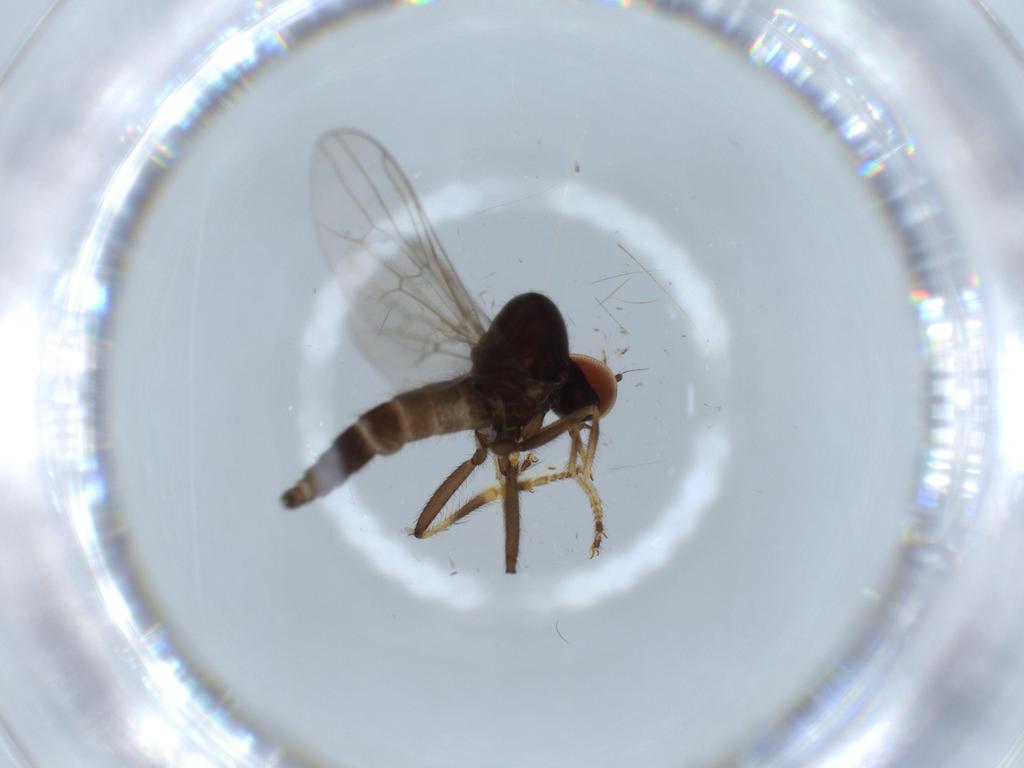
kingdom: Animalia
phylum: Arthropoda
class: Insecta
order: Diptera
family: Hybotidae
